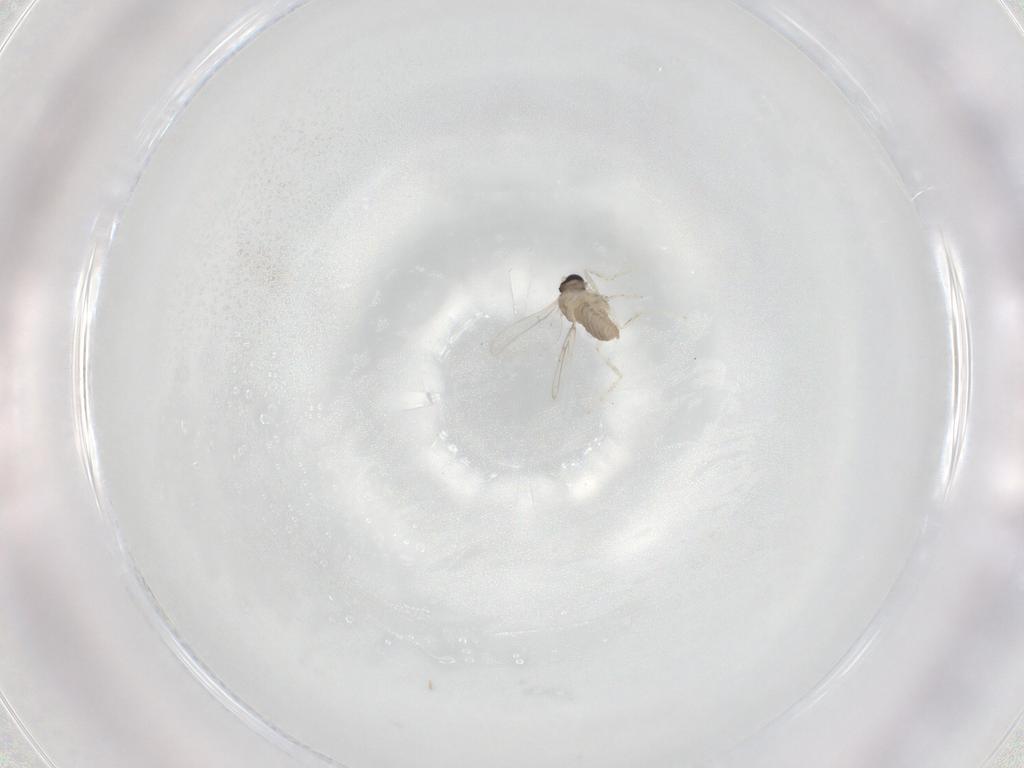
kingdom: Animalia
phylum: Arthropoda
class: Insecta
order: Diptera
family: Cecidomyiidae
